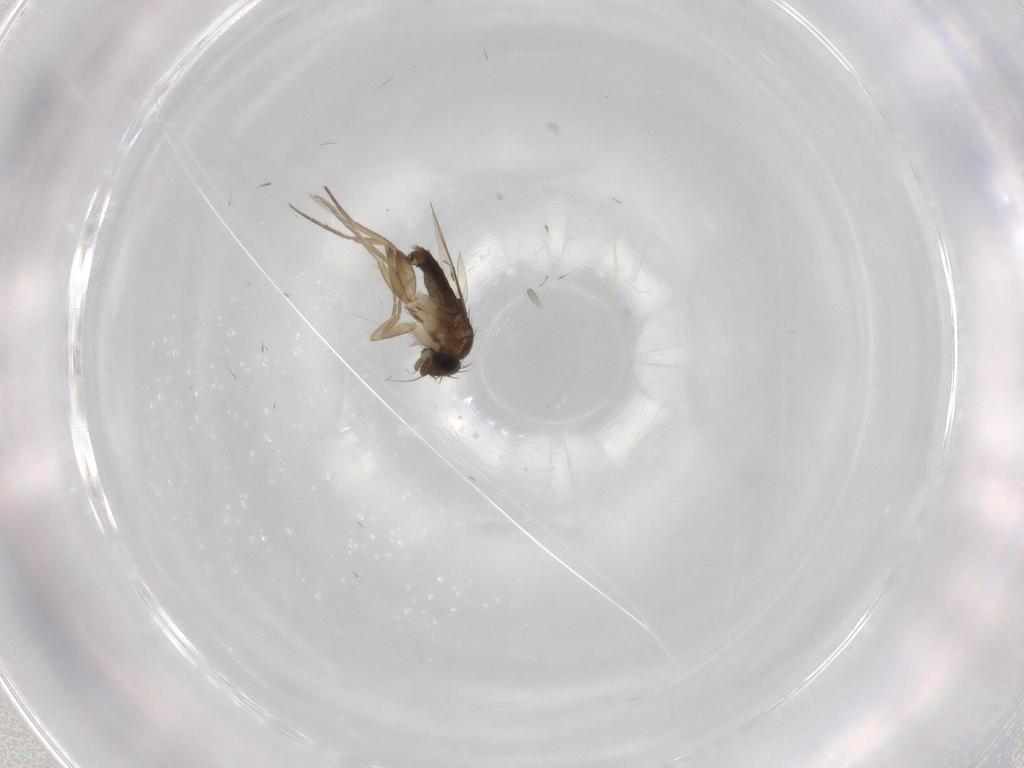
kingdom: Animalia
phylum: Arthropoda
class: Insecta
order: Diptera
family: Phoridae
